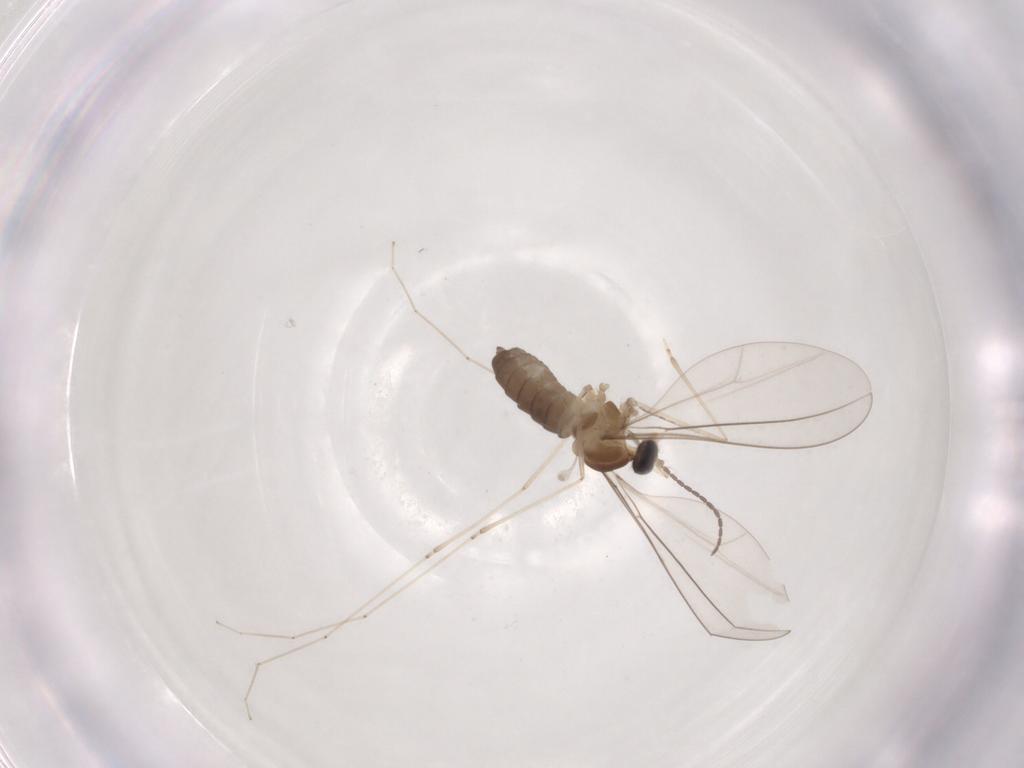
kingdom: Animalia
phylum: Arthropoda
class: Insecta
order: Diptera
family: Cecidomyiidae
